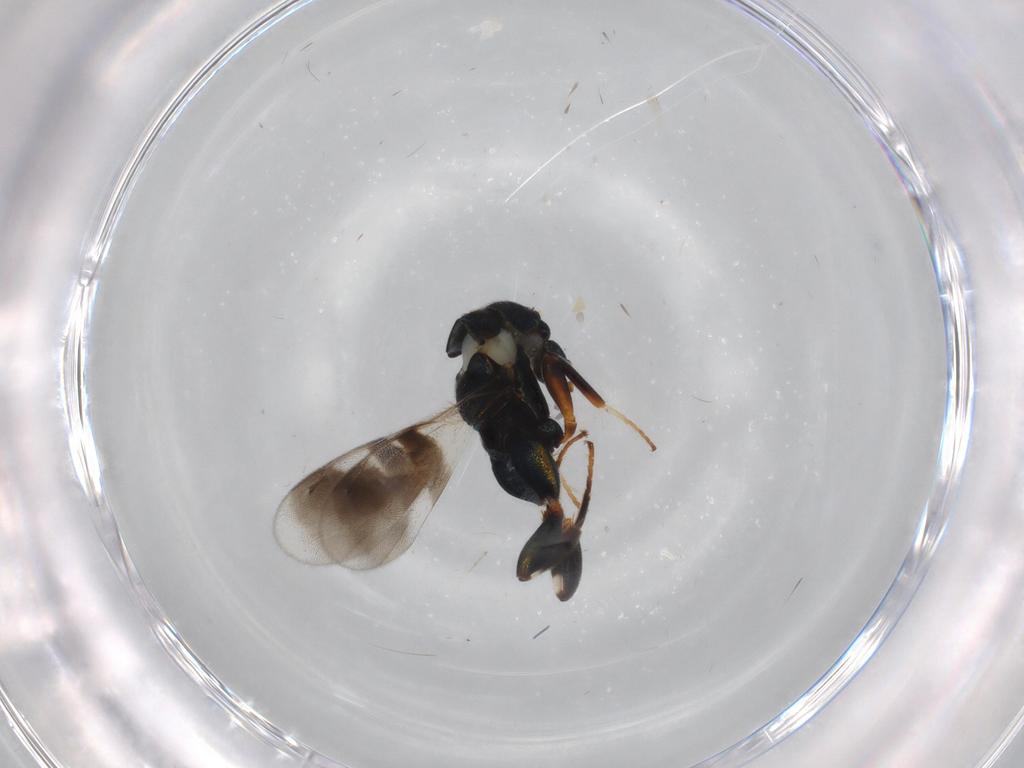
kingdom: Animalia
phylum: Arthropoda
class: Insecta
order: Hymenoptera
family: Cleonyminae
